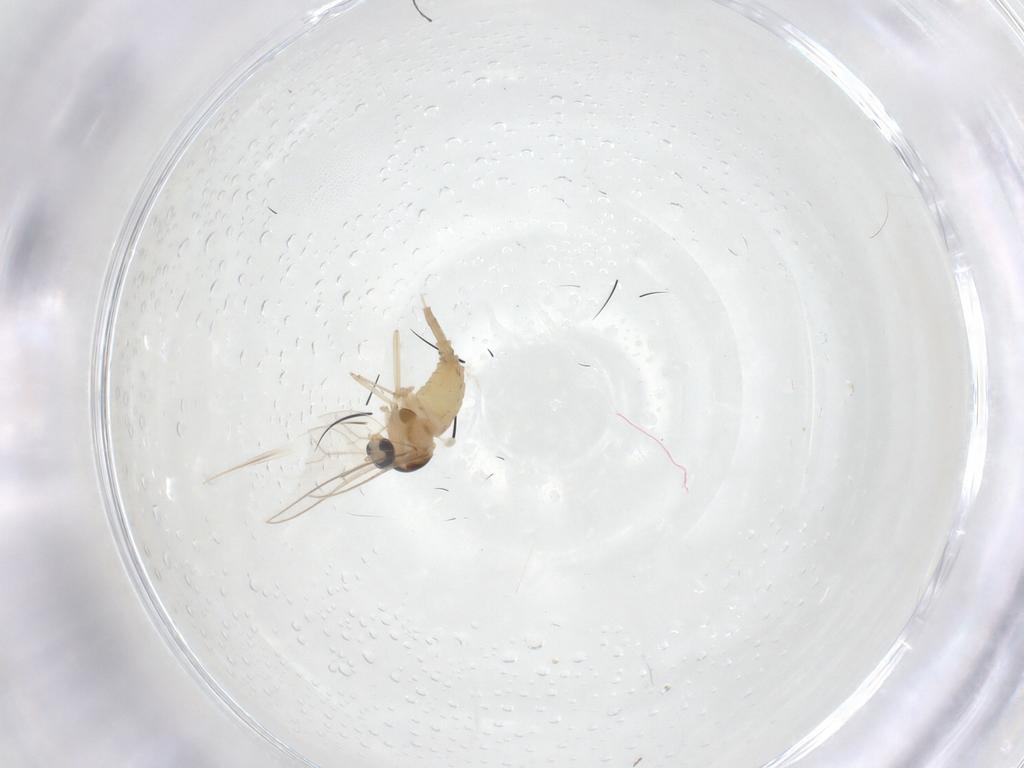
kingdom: Animalia
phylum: Arthropoda
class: Insecta
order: Diptera
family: Cecidomyiidae
